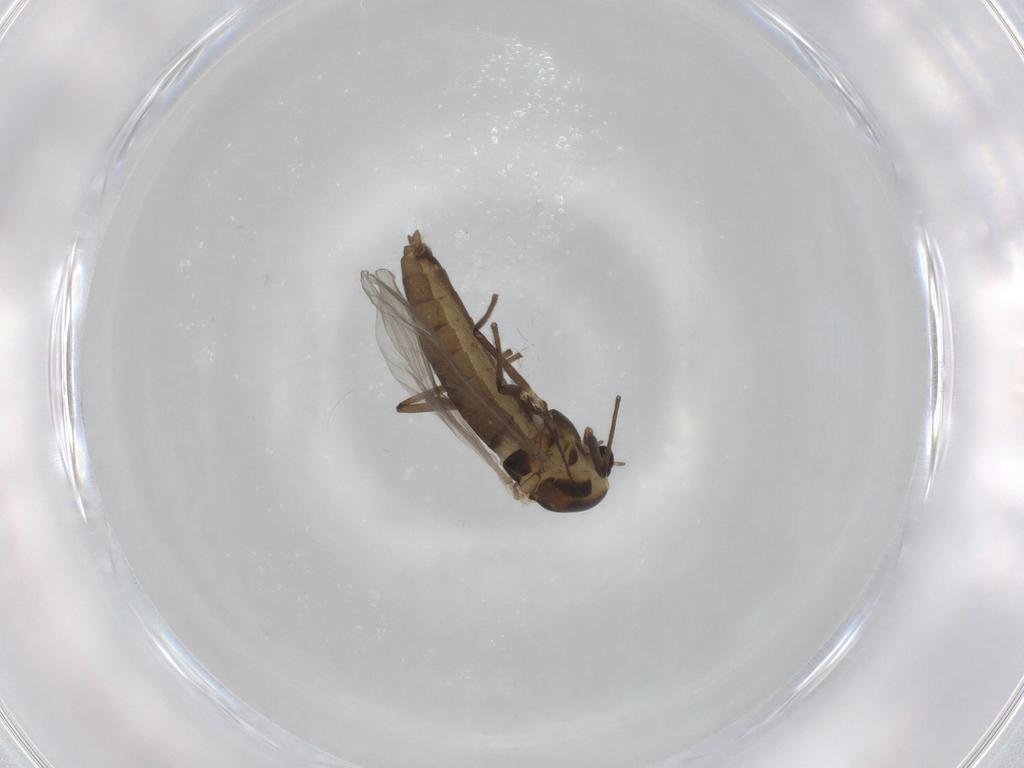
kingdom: Animalia
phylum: Arthropoda
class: Insecta
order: Diptera
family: Chironomidae
